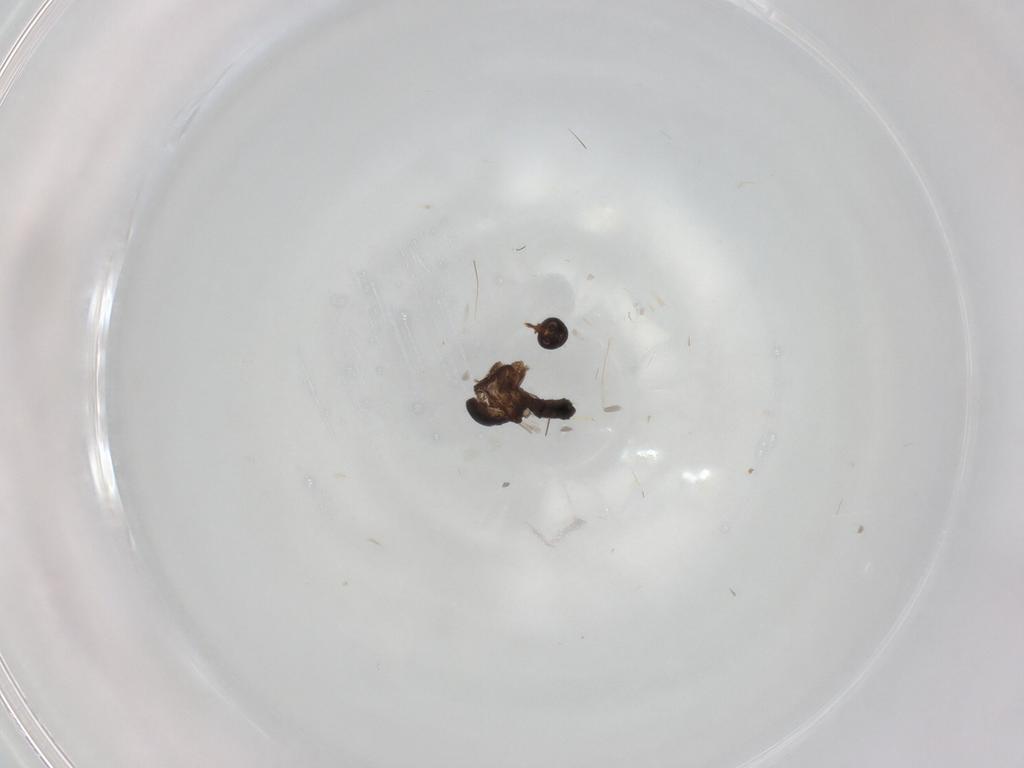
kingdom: Animalia
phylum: Arthropoda
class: Insecta
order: Diptera
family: Ceratopogonidae
